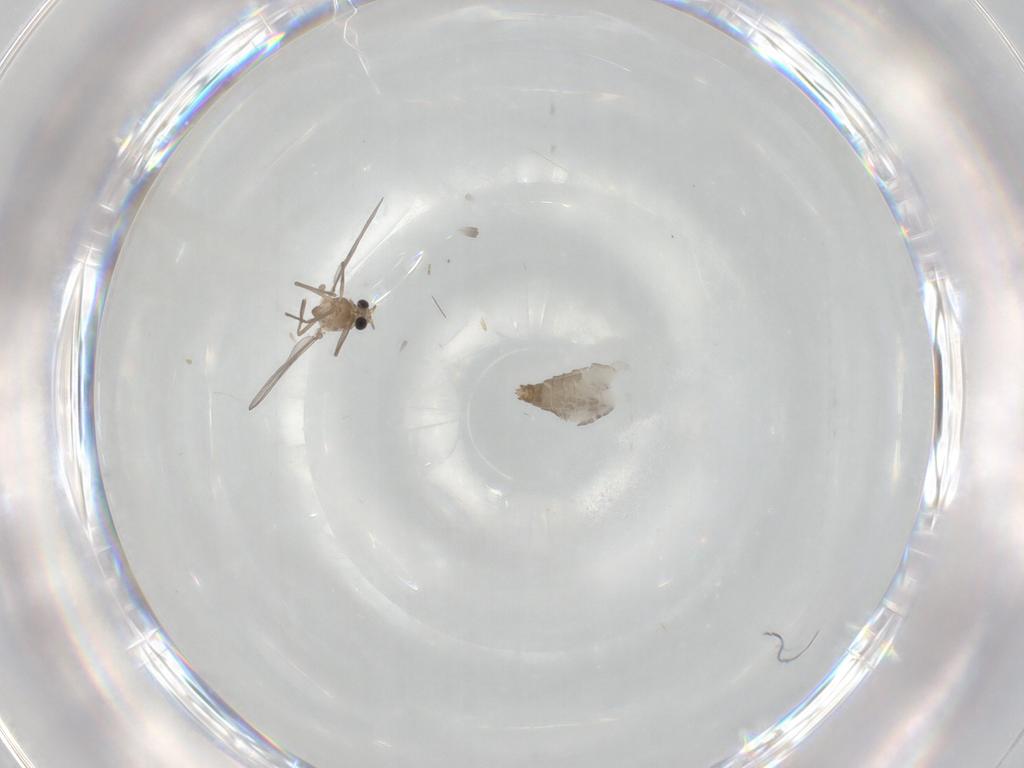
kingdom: Animalia
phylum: Arthropoda
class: Insecta
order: Diptera
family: Chironomidae
